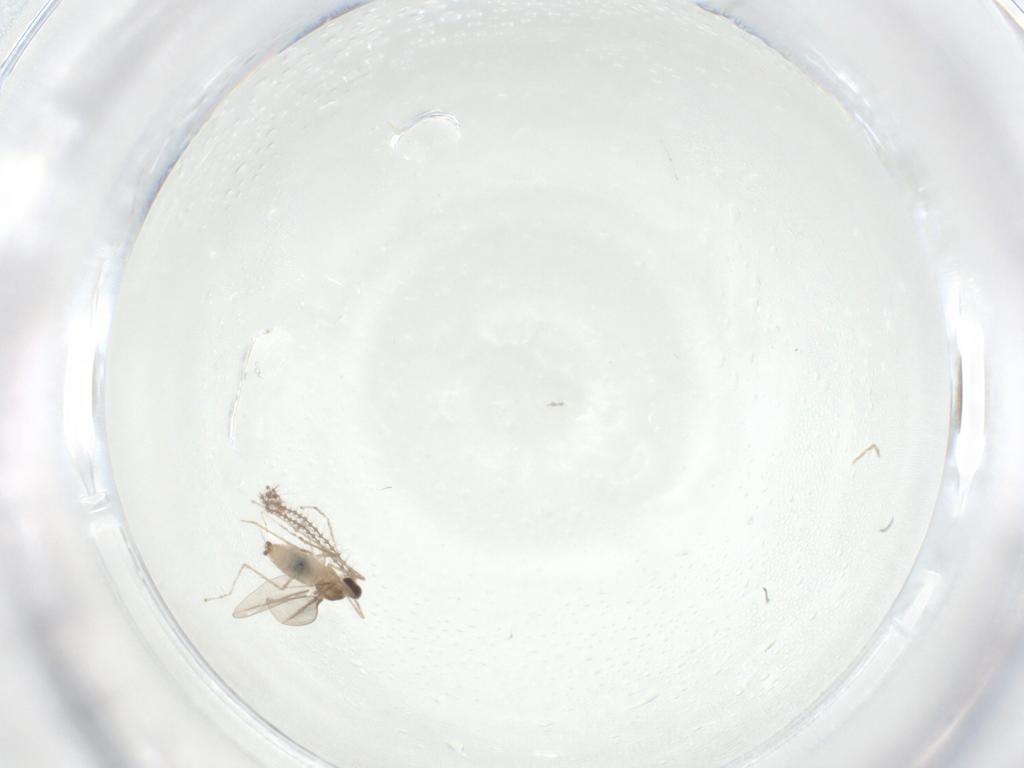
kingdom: Animalia
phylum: Arthropoda
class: Insecta
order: Diptera
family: Cecidomyiidae
